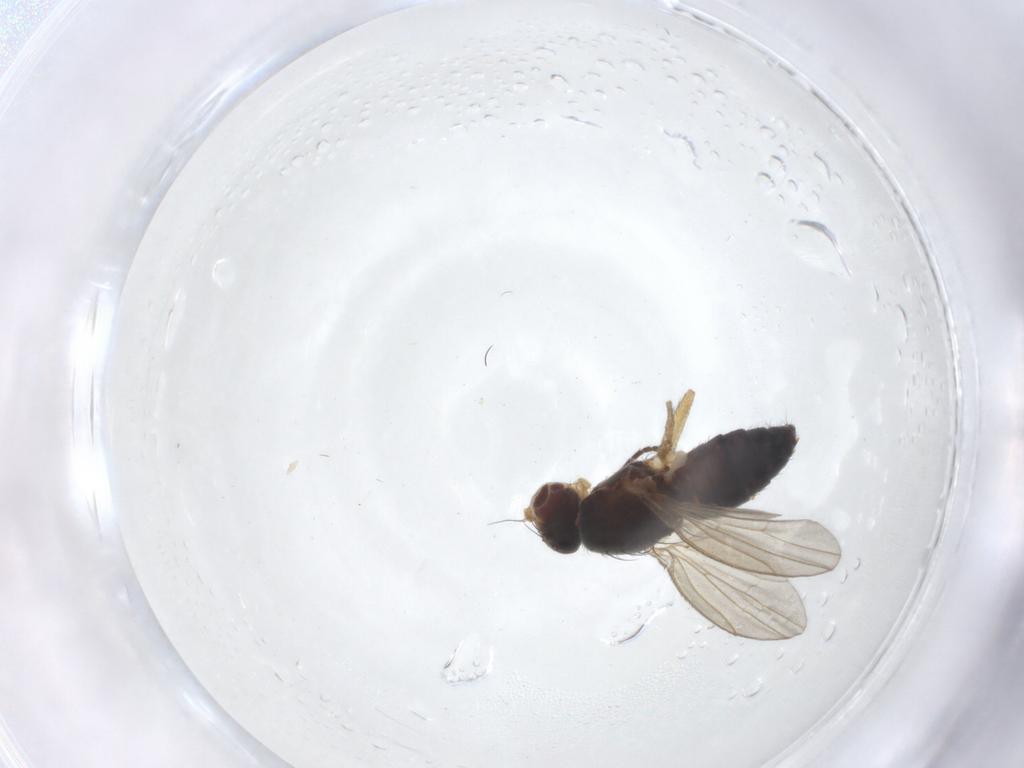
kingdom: Animalia
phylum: Arthropoda
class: Insecta
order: Diptera
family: Heleomyzidae
